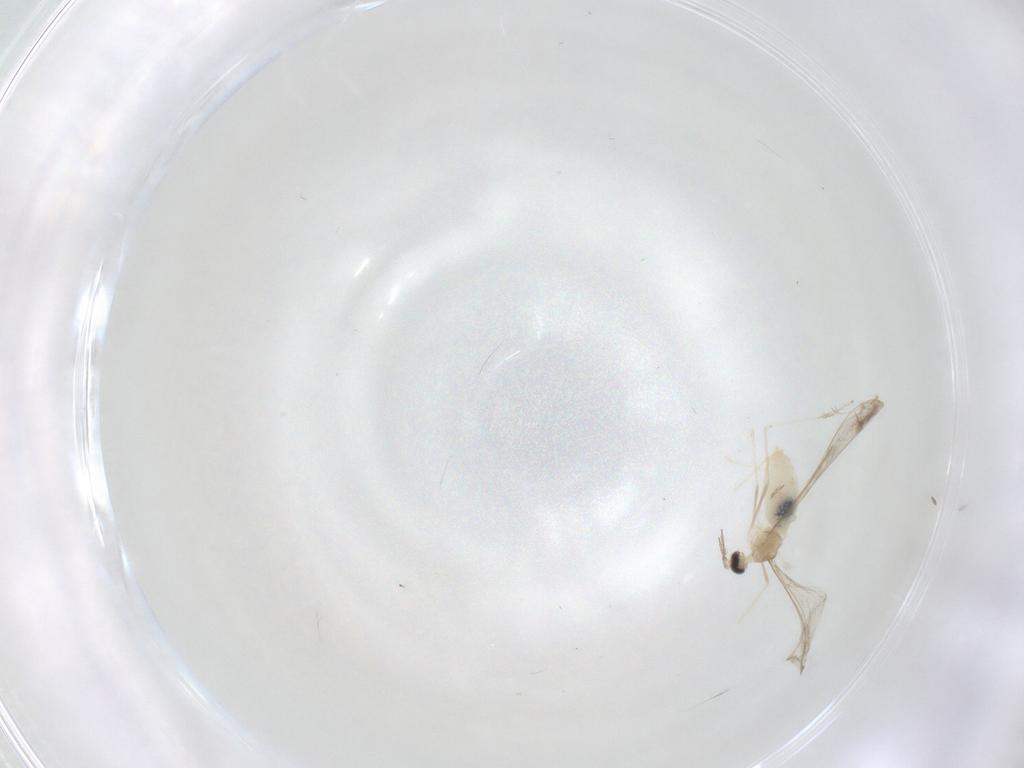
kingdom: Animalia
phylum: Arthropoda
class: Insecta
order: Diptera
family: Cecidomyiidae
